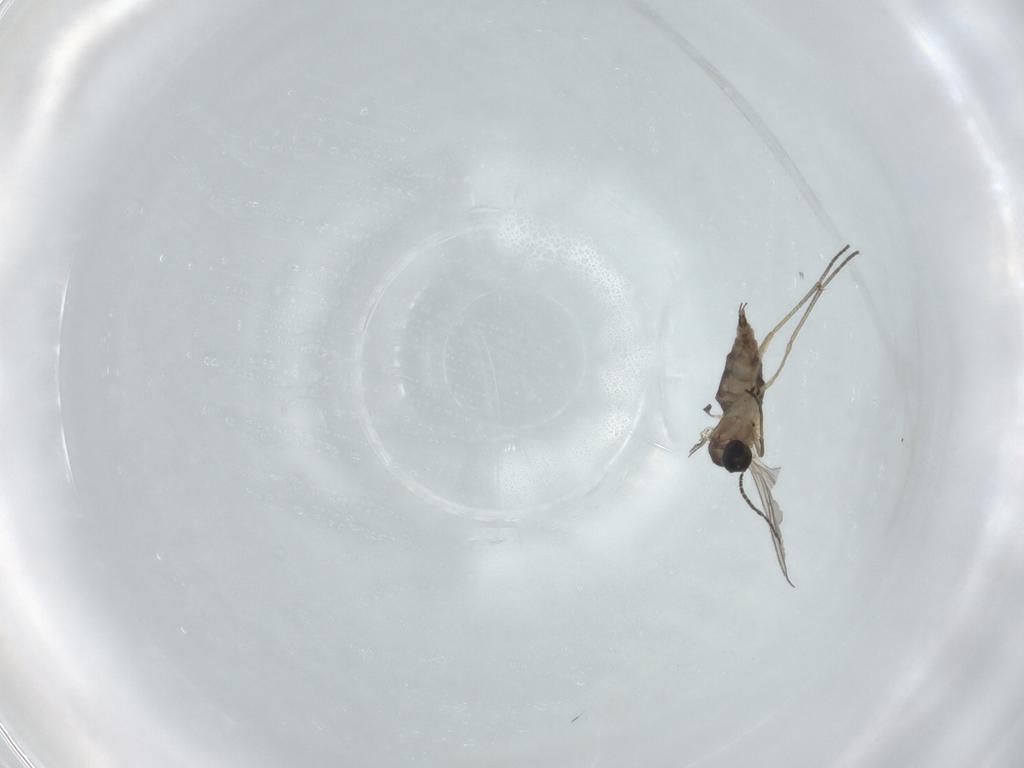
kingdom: Animalia
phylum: Arthropoda
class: Insecta
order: Diptera
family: Sciaridae
